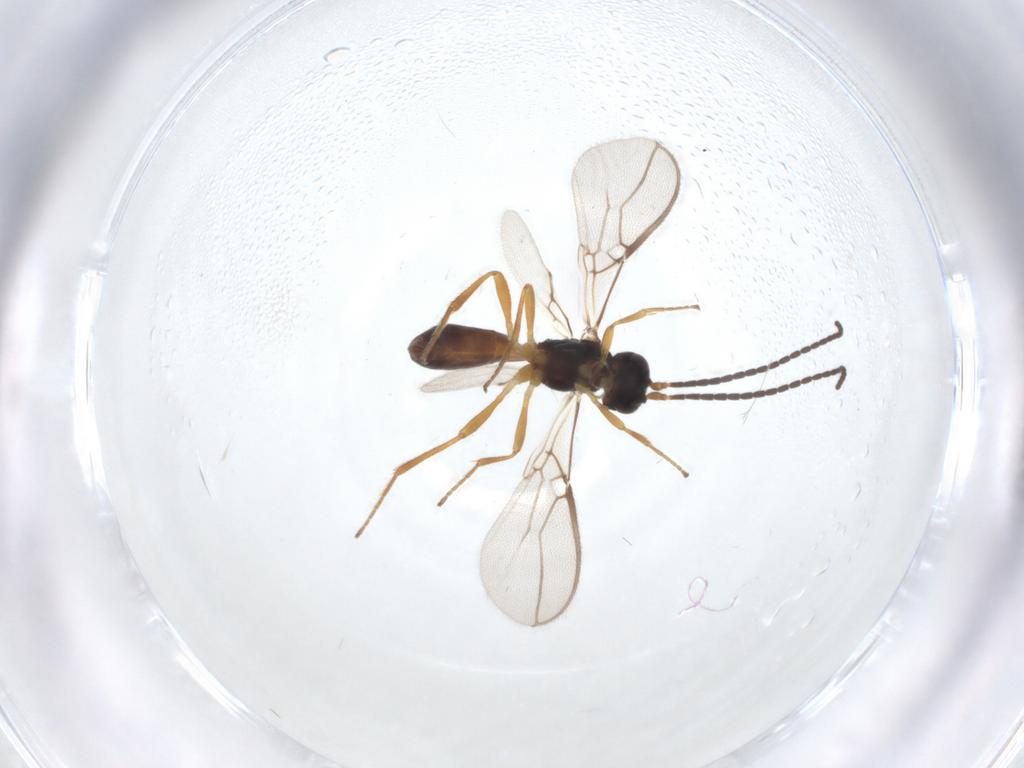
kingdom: Animalia
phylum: Arthropoda
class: Insecta
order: Hymenoptera
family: Braconidae
